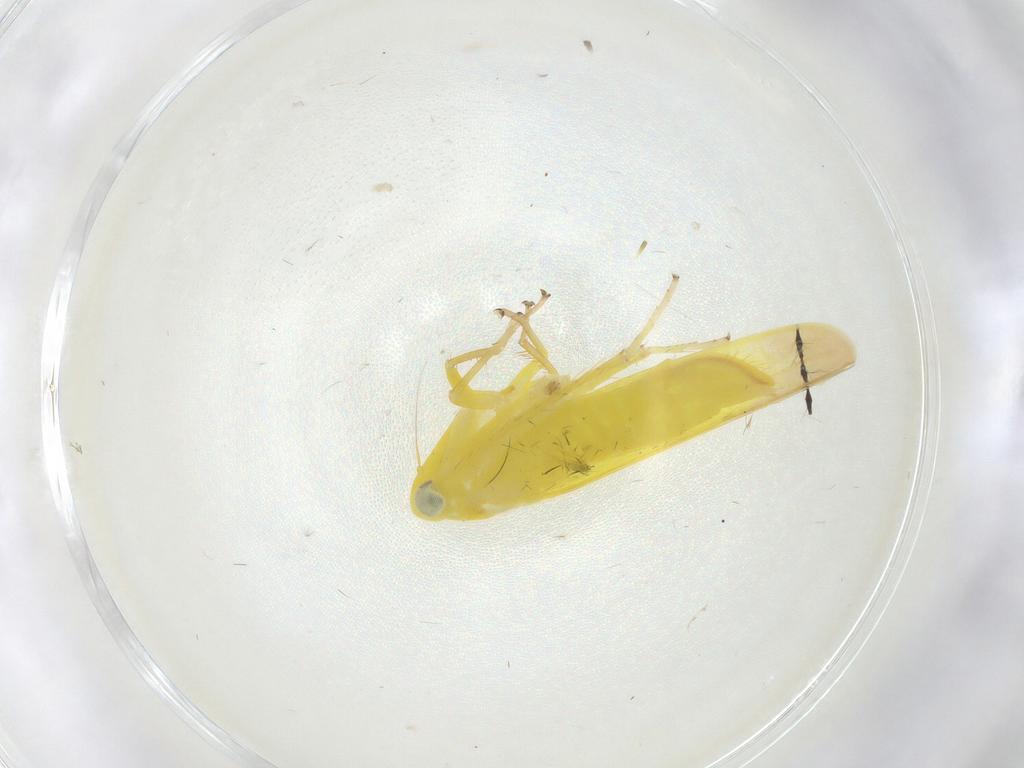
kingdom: Animalia
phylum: Arthropoda
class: Insecta
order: Hemiptera
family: Cicadellidae
